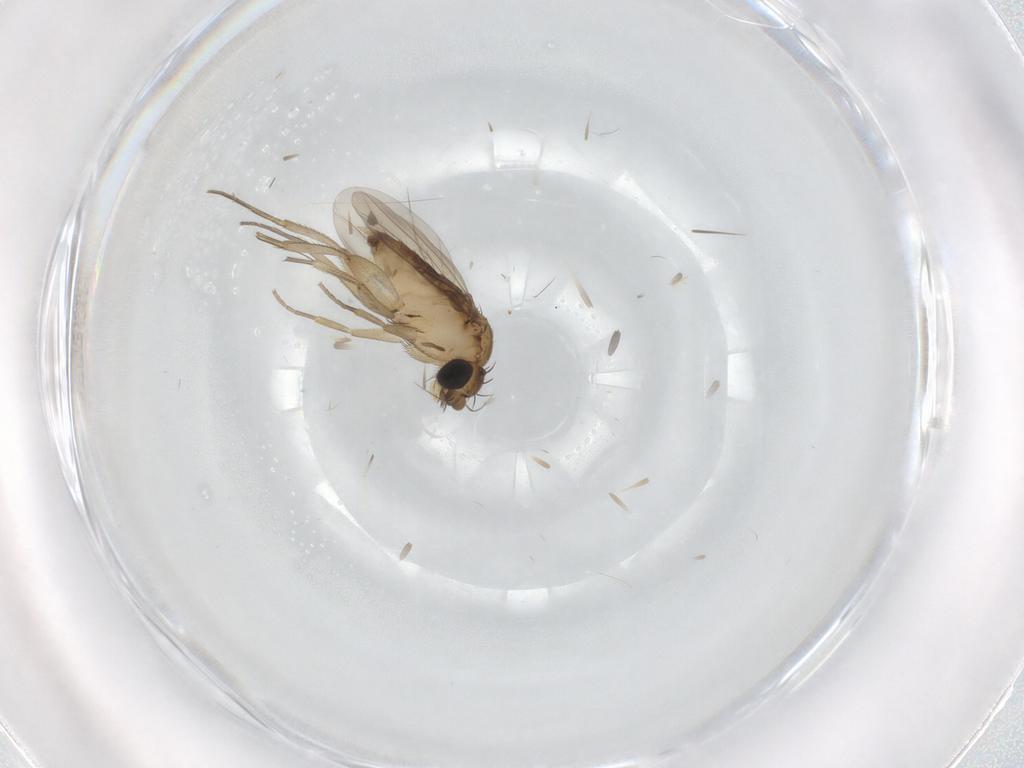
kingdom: Animalia
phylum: Arthropoda
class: Insecta
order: Diptera
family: Phoridae
